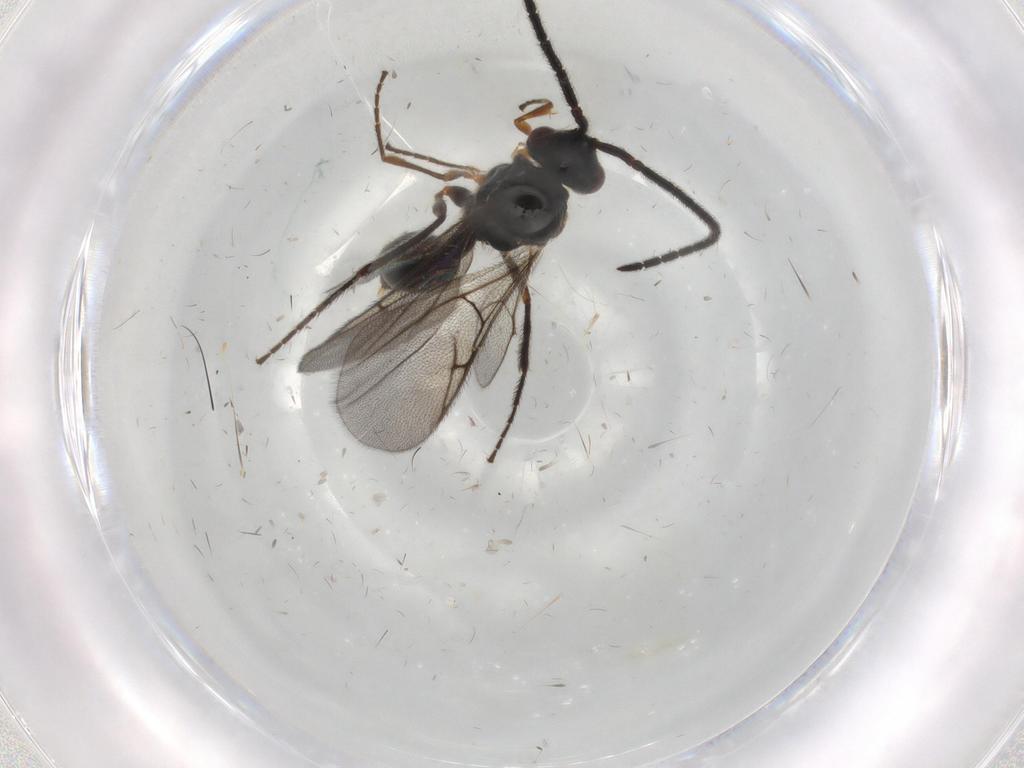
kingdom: Animalia
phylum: Arthropoda
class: Insecta
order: Hymenoptera
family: Diapriidae
